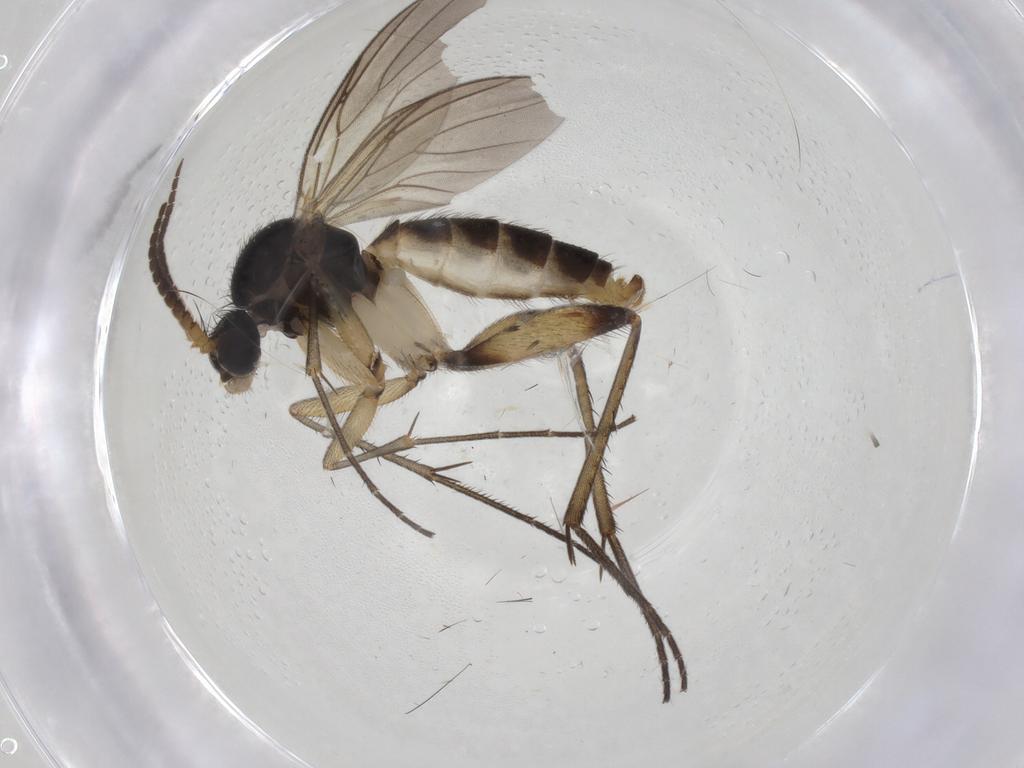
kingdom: Animalia
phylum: Arthropoda
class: Insecta
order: Diptera
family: Mycetophilidae
